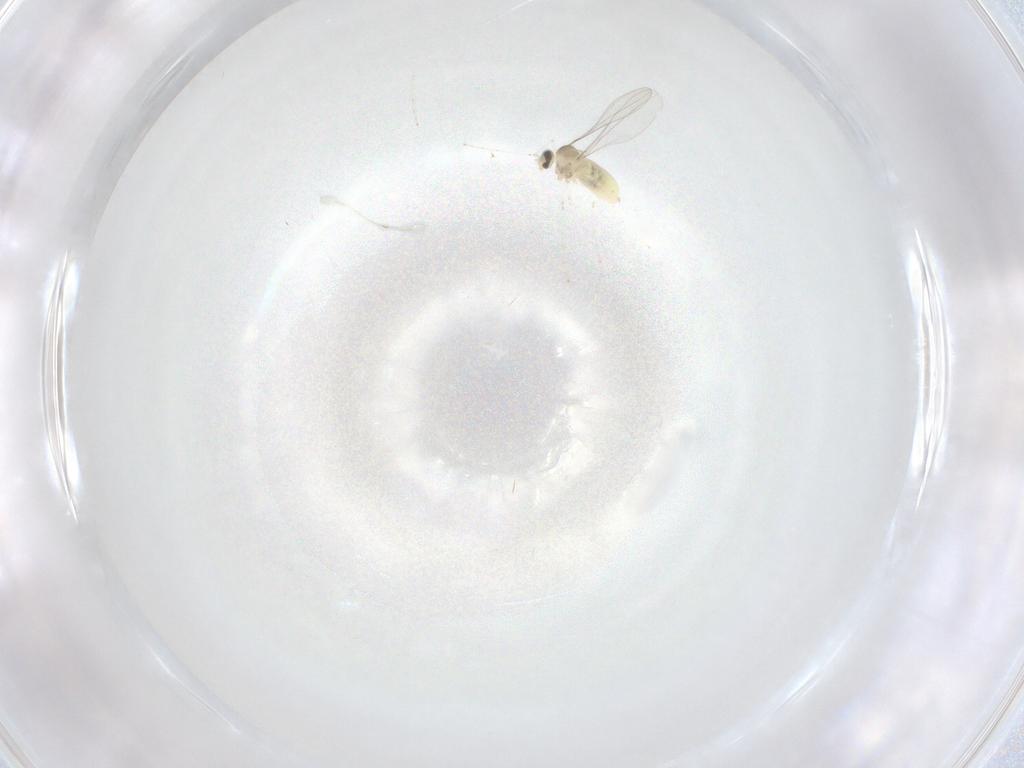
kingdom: Animalia
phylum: Arthropoda
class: Insecta
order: Diptera
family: Cecidomyiidae
